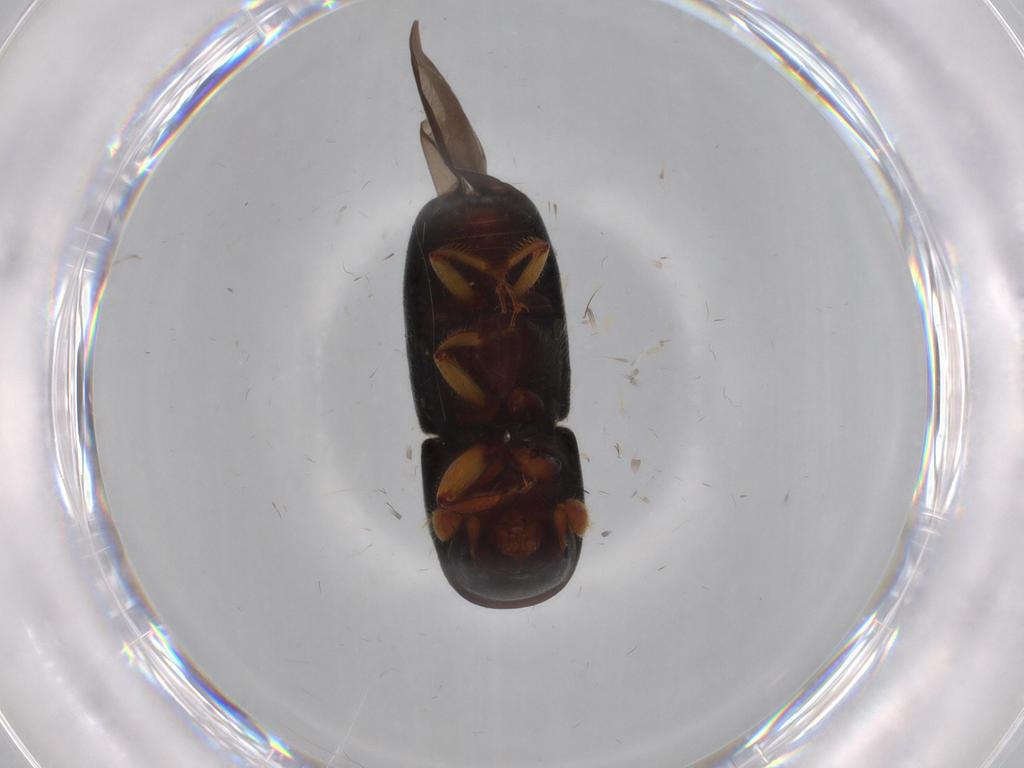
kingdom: Animalia
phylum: Arthropoda
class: Insecta
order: Coleoptera
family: Curculionidae
